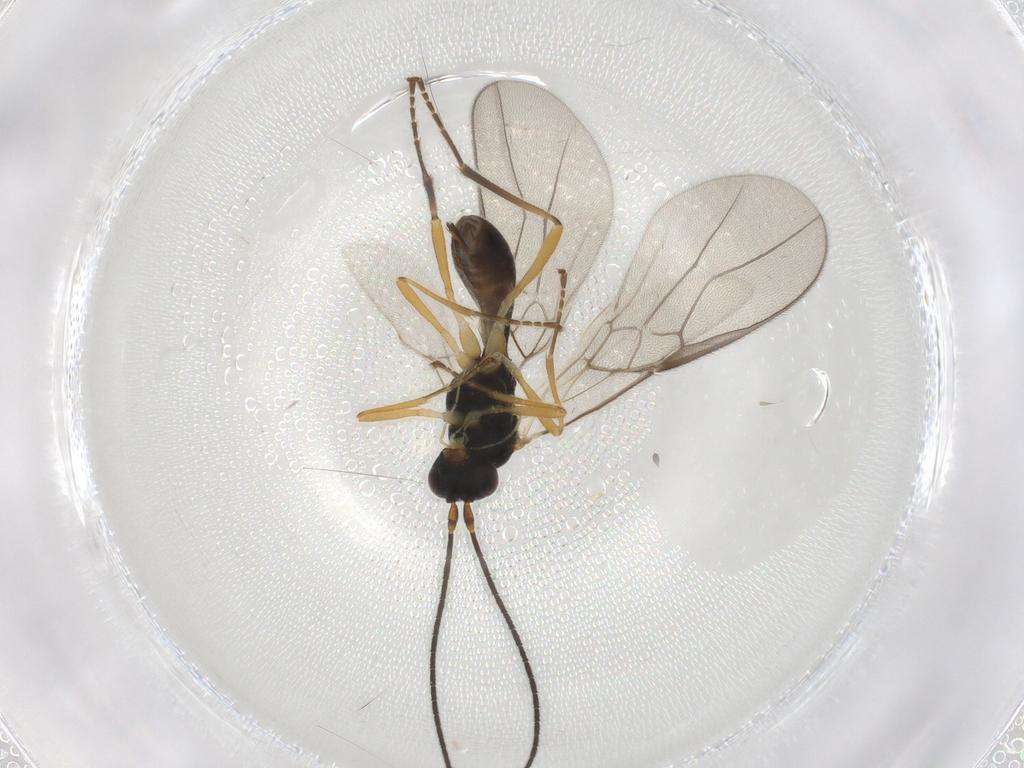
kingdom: Animalia
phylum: Arthropoda
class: Insecta
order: Hymenoptera
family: Braconidae
